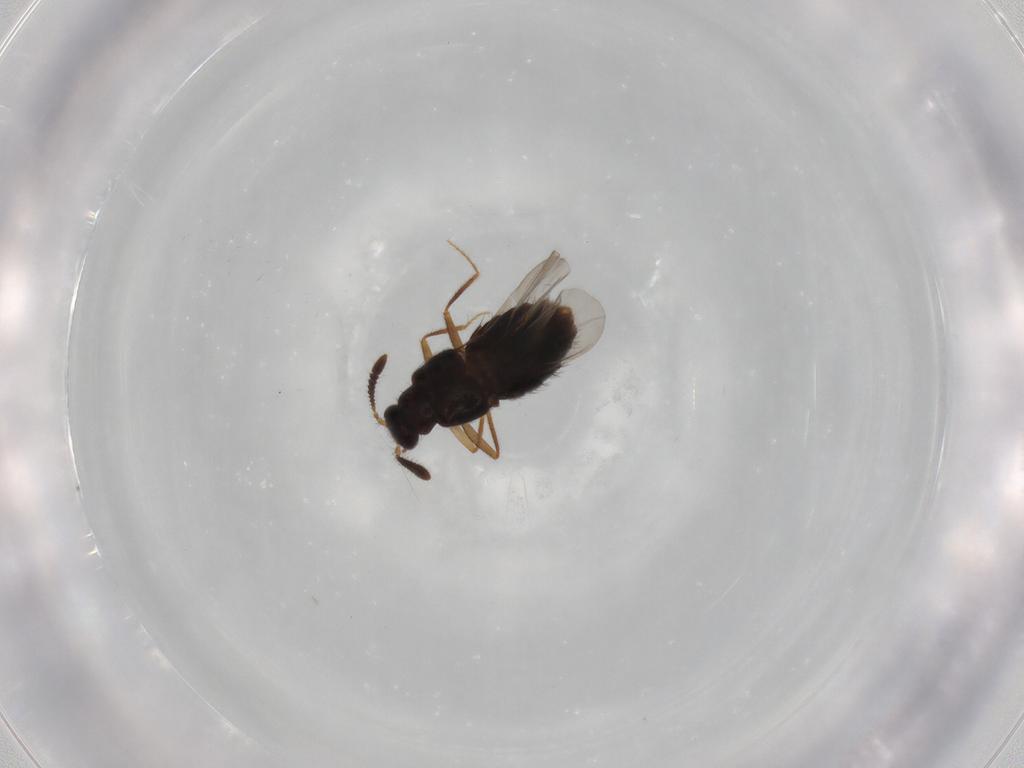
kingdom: Animalia
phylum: Arthropoda
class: Insecta
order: Coleoptera
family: Staphylinidae
